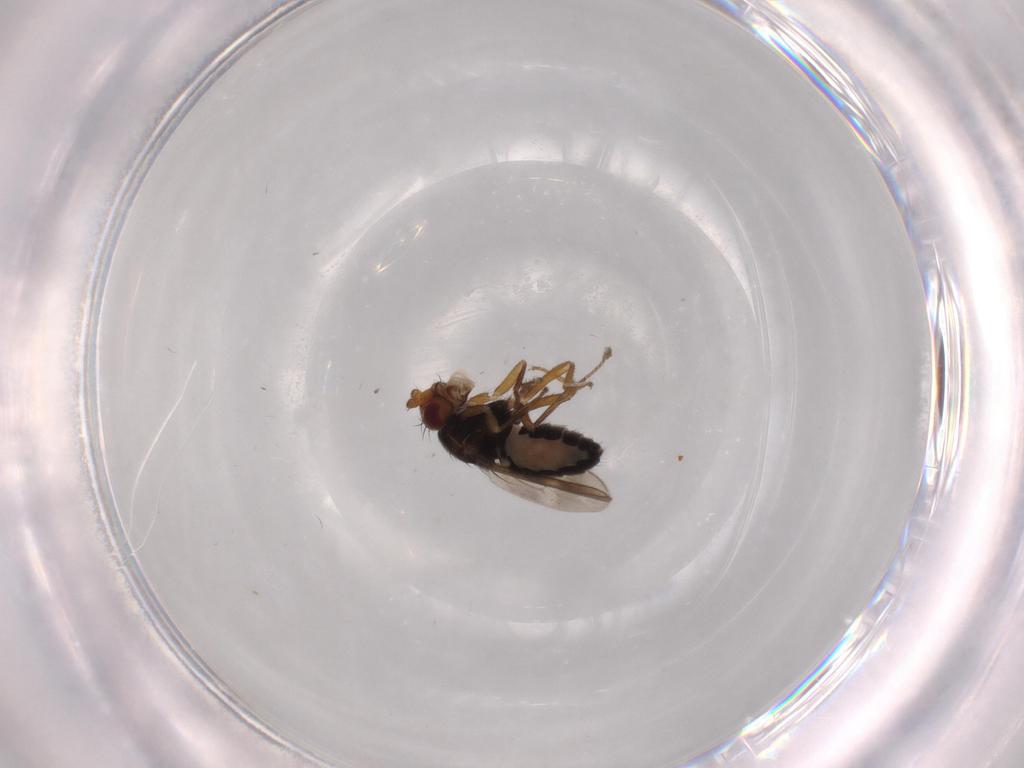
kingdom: Animalia
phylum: Arthropoda
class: Insecta
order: Diptera
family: Sphaeroceridae
